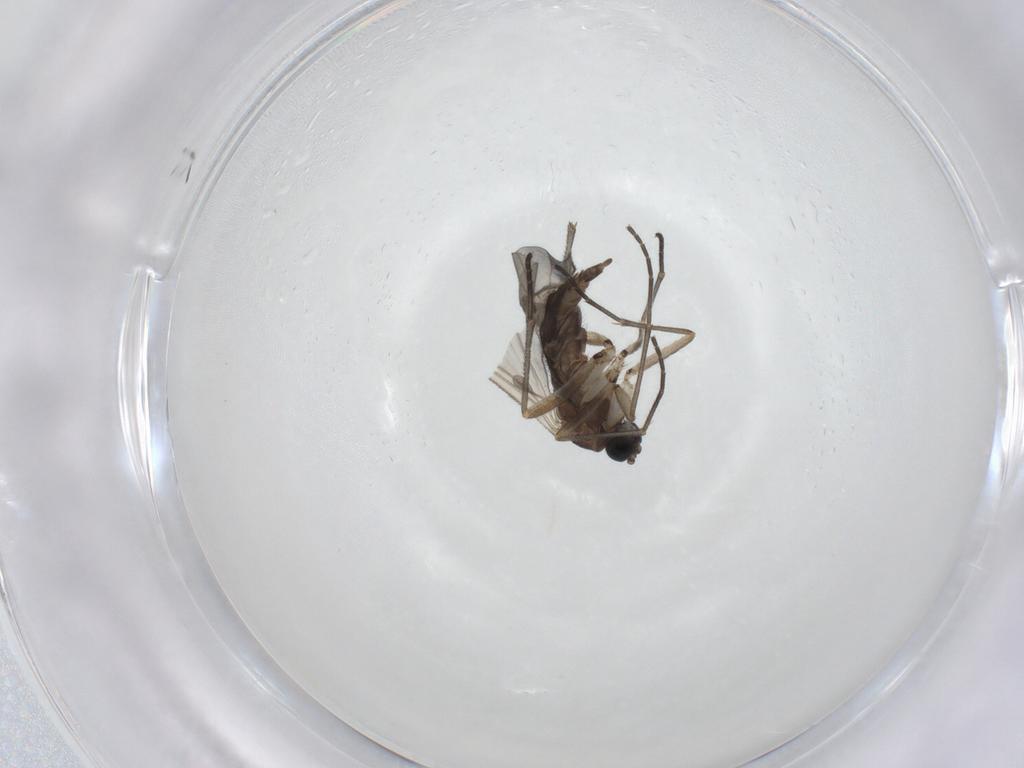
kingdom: Animalia
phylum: Arthropoda
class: Insecta
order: Diptera
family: Sciaridae
